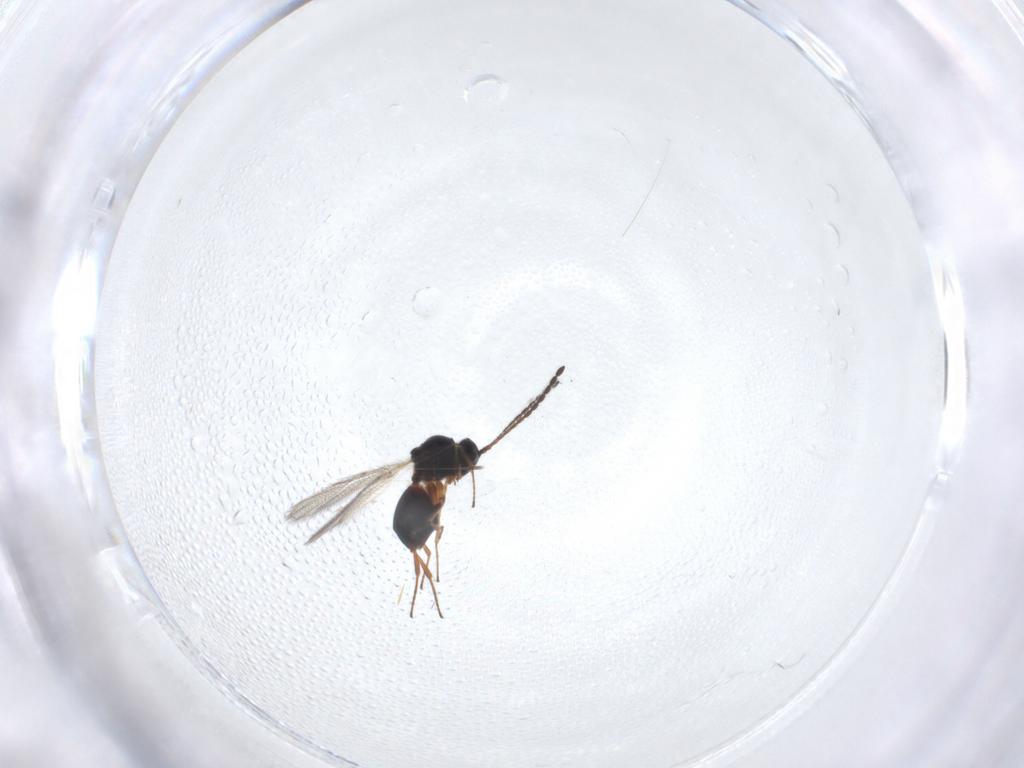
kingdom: Animalia
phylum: Arthropoda
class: Insecta
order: Hymenoptera
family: Figitidae
